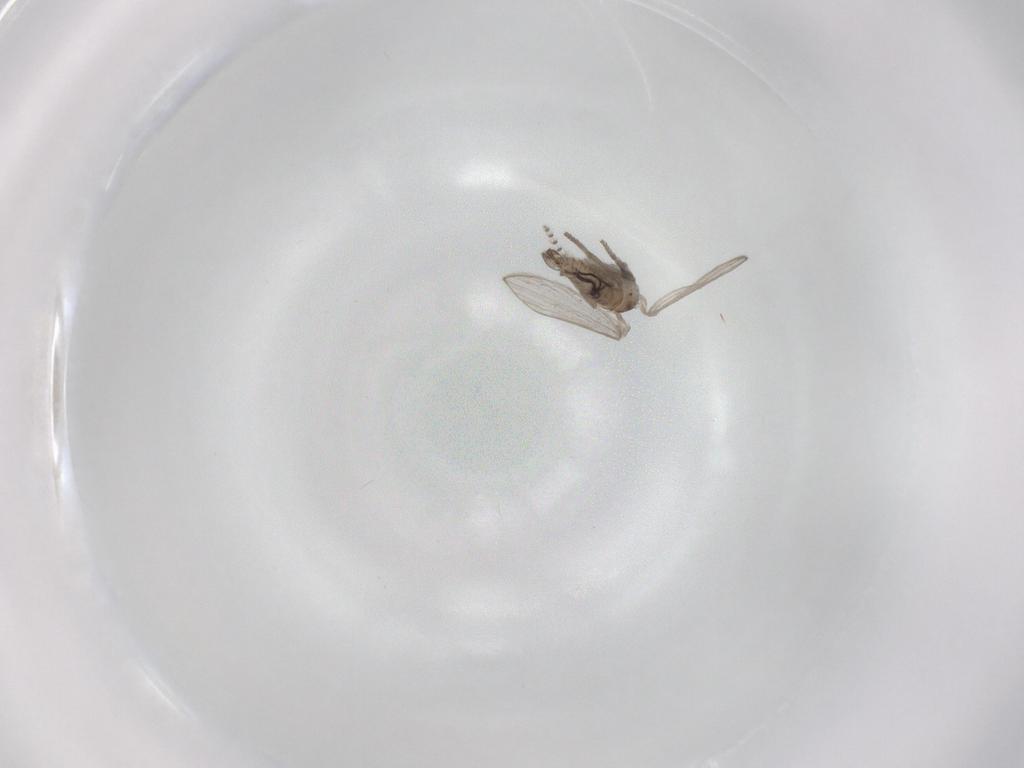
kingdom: Animalia
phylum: Arthropoda
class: Insecta
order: Diptera
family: Psychodidae
